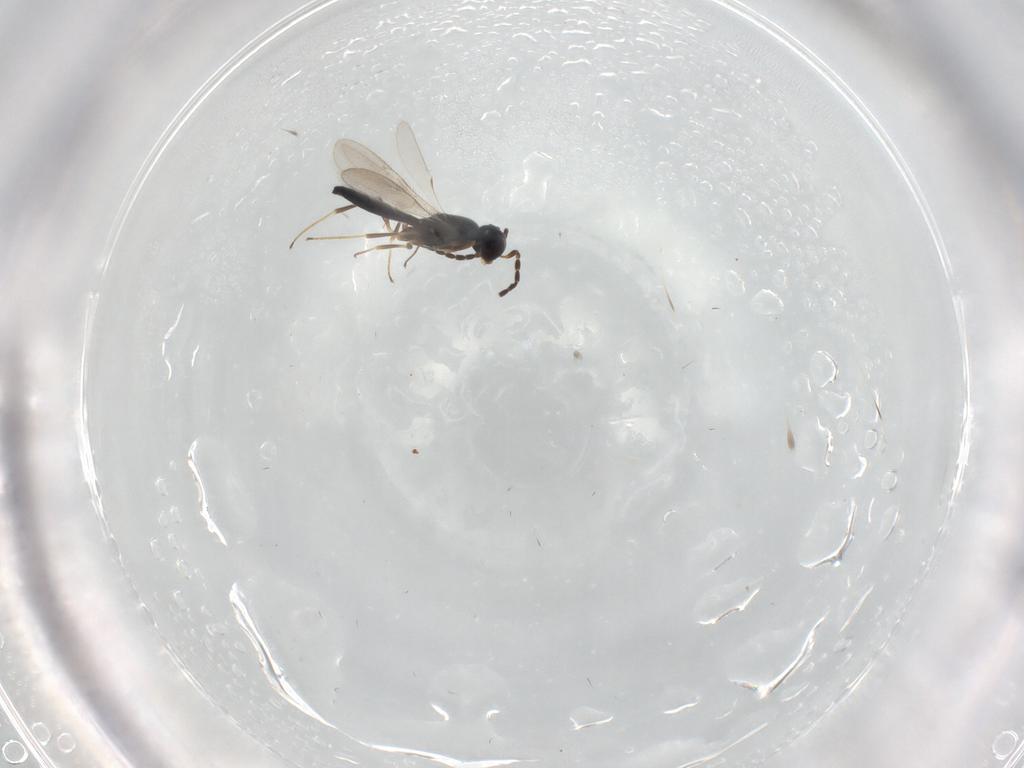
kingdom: Animalia
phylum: Arthropoda
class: Insecta
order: Hymenoptera
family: Scelionidae
